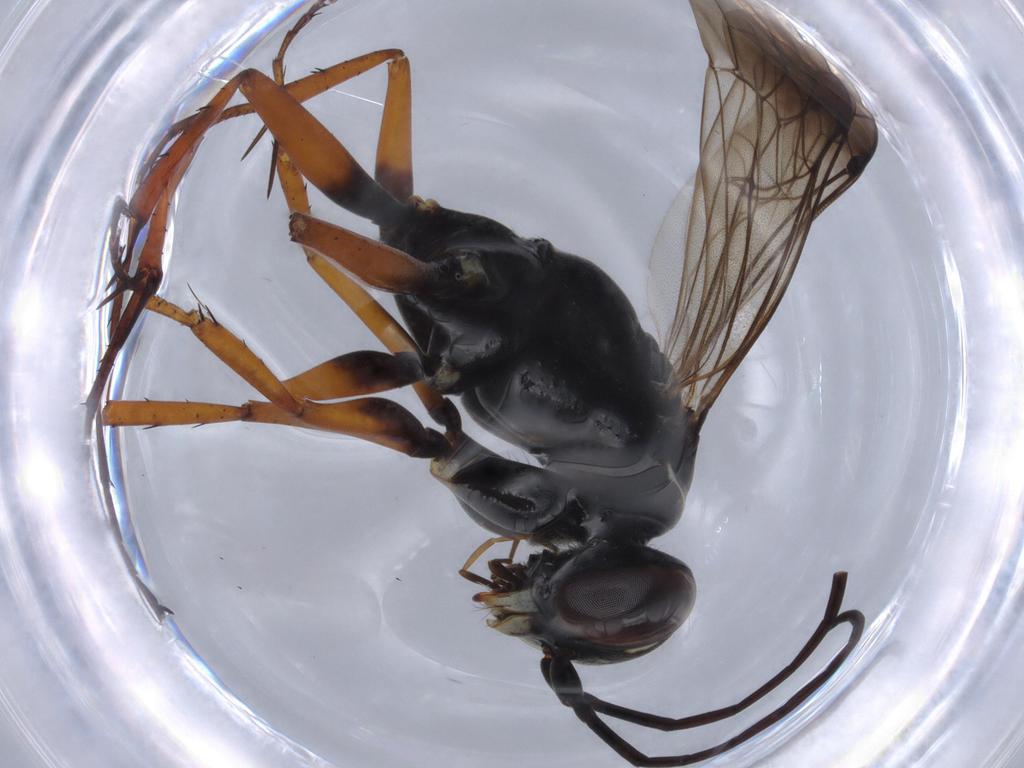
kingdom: Animalia
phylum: Arthropoda
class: Insecta
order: Hymenoptera
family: Platygastridae
